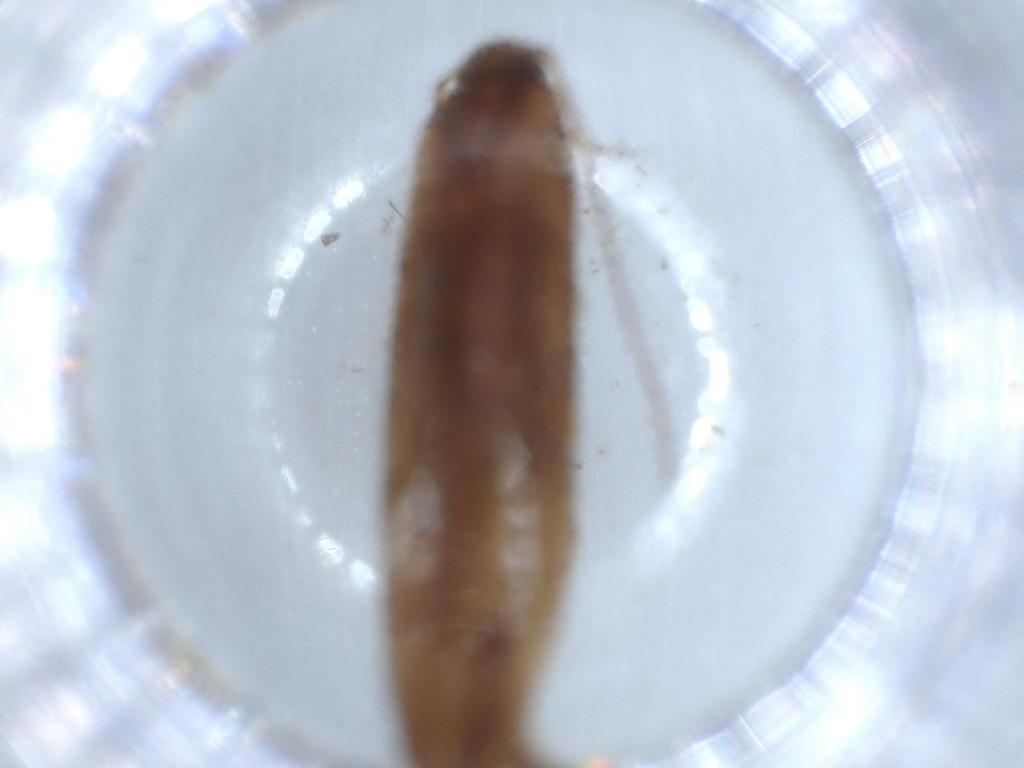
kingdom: Animalia
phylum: Arthropoda
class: Insecta
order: Lepidoptera
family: Stathmopodidae
